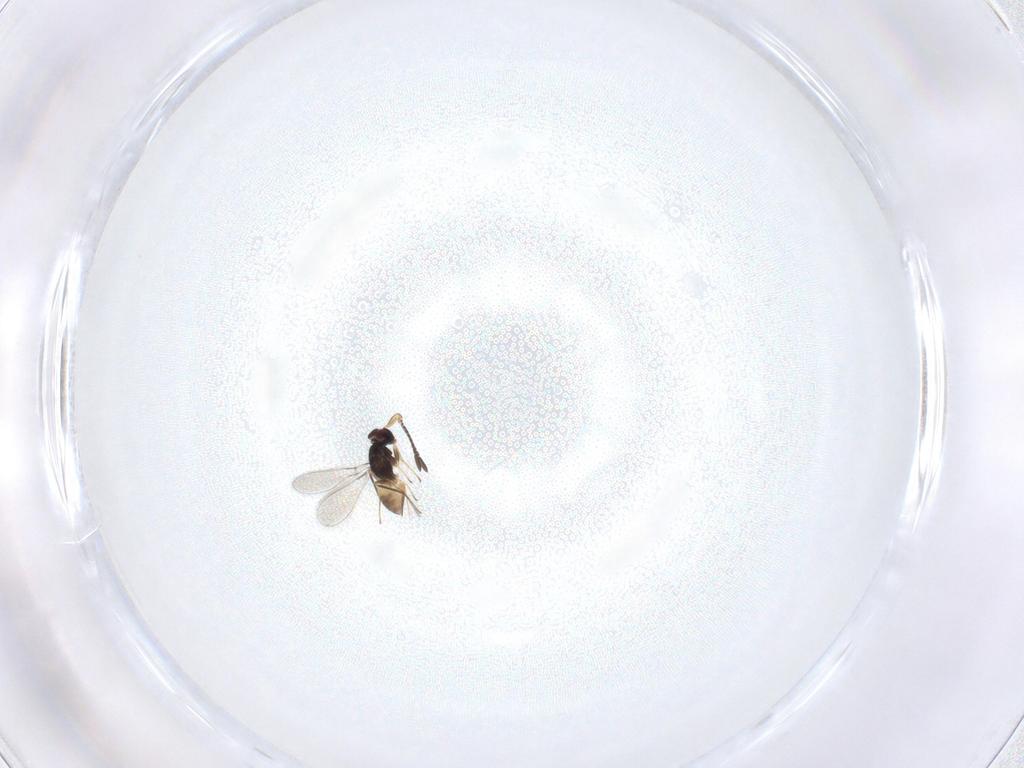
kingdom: Animalia
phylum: Arthropoda
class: Insecta
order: Hymenoptera
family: Mymaridae
